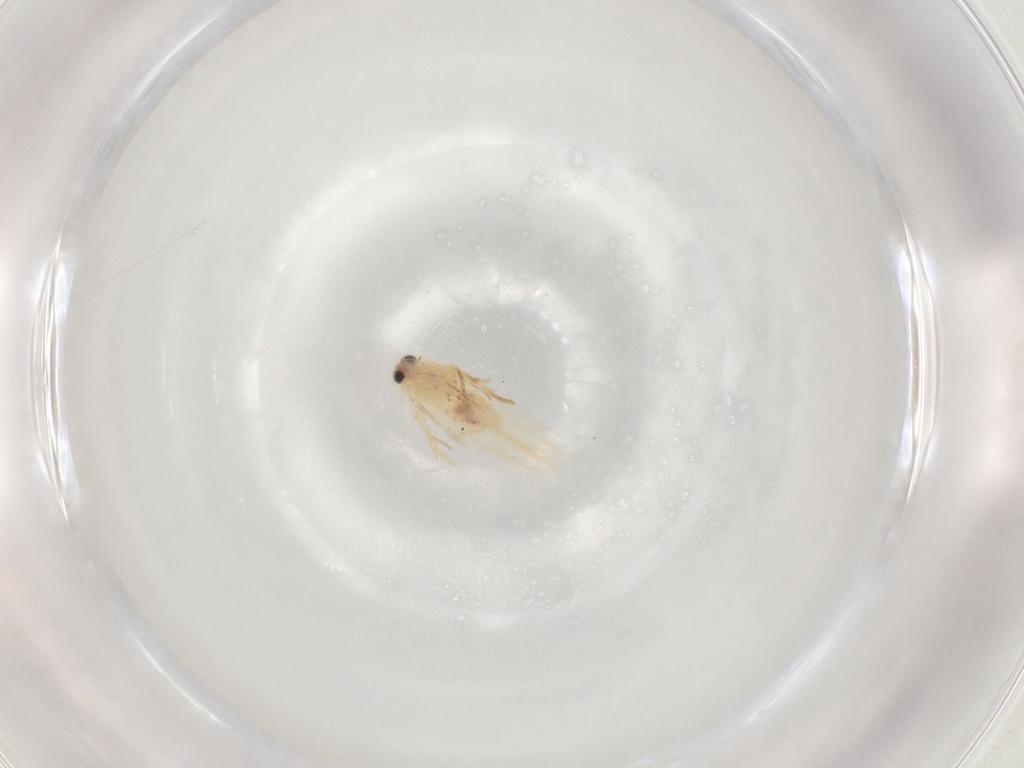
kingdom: Animalia
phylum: Arthropoda
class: Insecta
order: Lepidoptera
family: Nepticulidae
